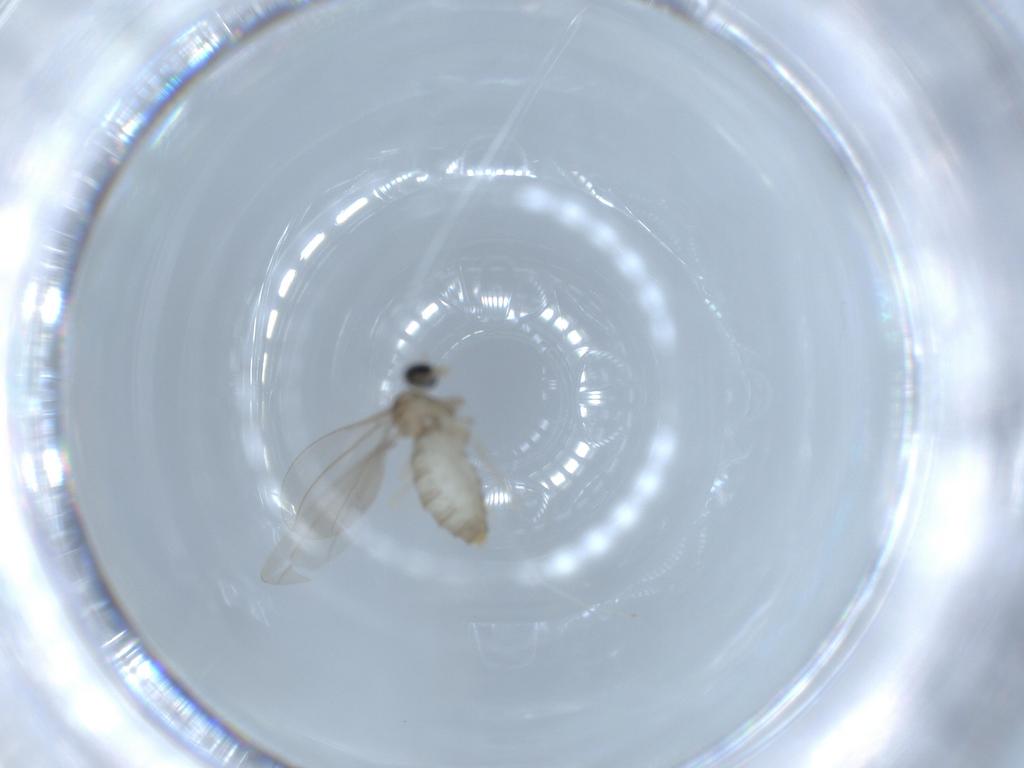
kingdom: Animalia
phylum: Arthropoda
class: Insecta
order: Diptera
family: Cecidomyiidae
